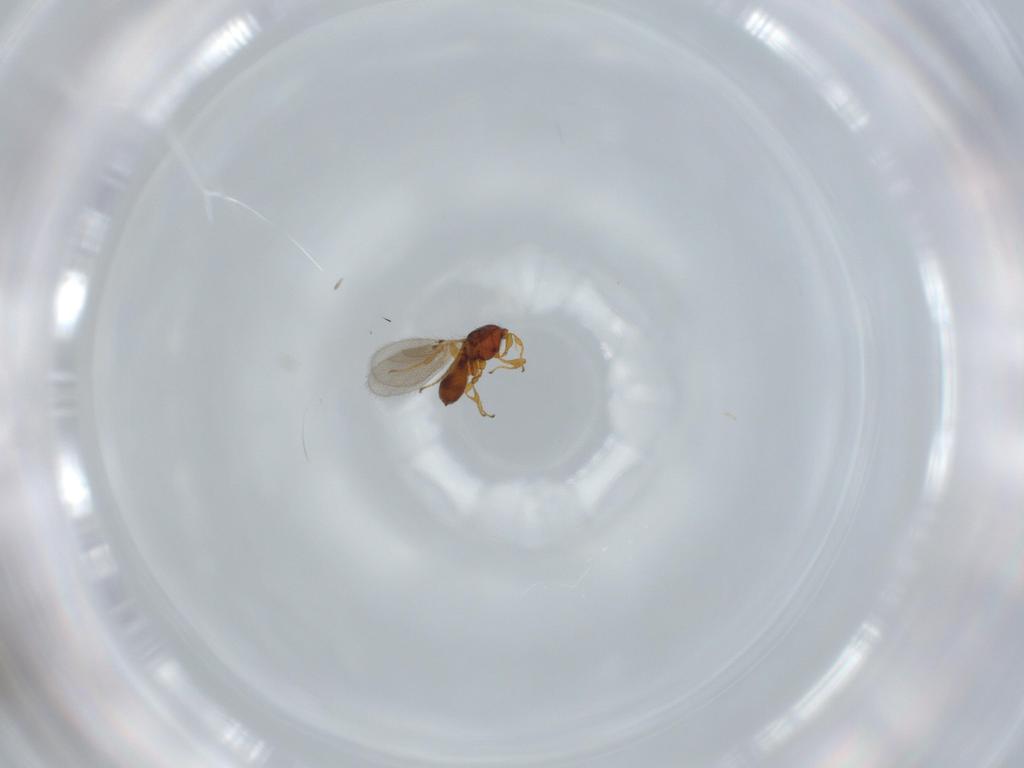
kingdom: Animalia
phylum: Arthropoda
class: Insecta
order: Hymenoptera
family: Diapriidae
